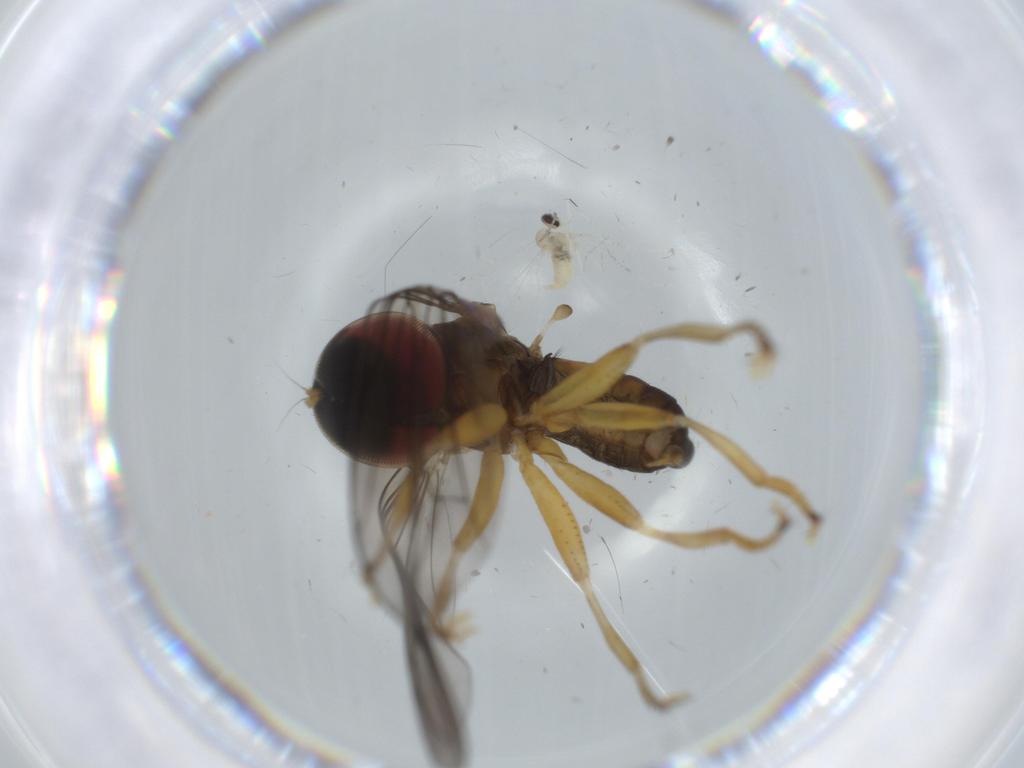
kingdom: Animalia
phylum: Arthropoda
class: Insecta
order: Diptera
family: Pipunculidae
